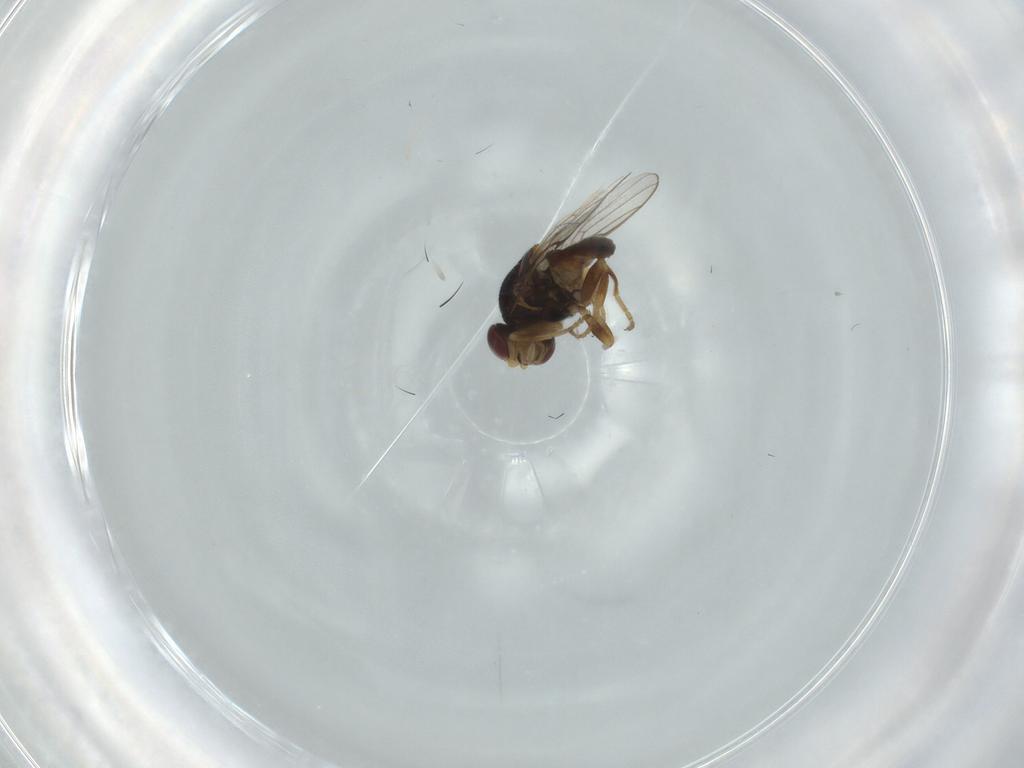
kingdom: Animalia
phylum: Arthropoda
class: Insecta
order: Diptera
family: Chloropidae
